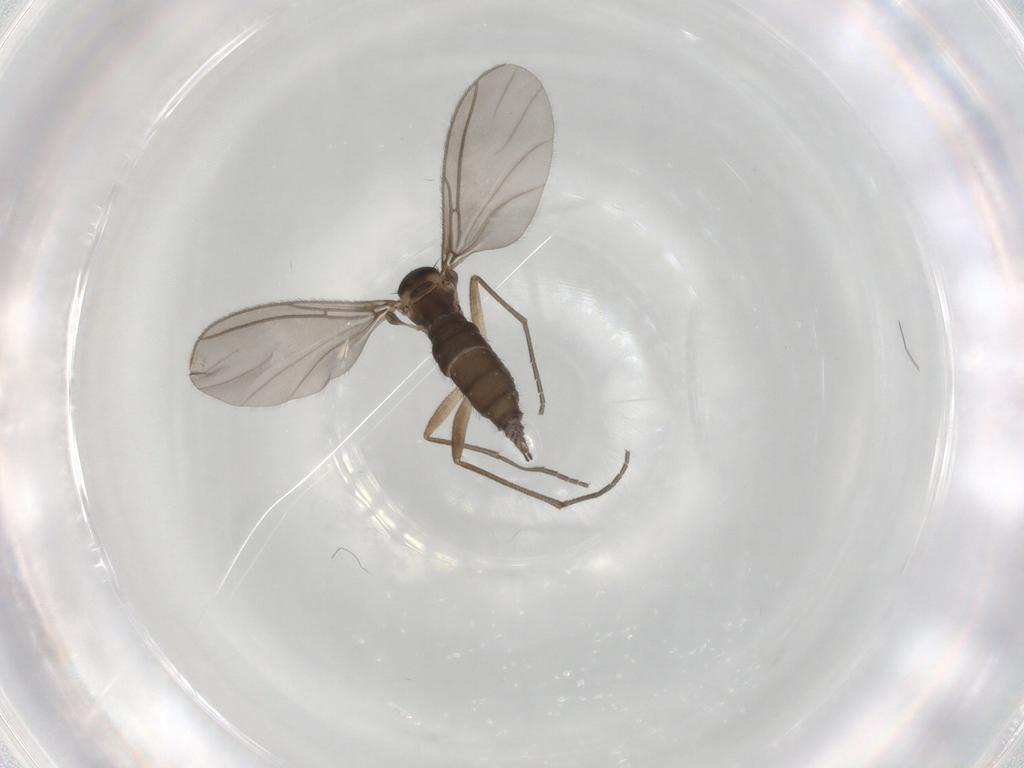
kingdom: Animalia
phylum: Arthropoda
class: Insecta
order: Diptera
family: Sciaridae
